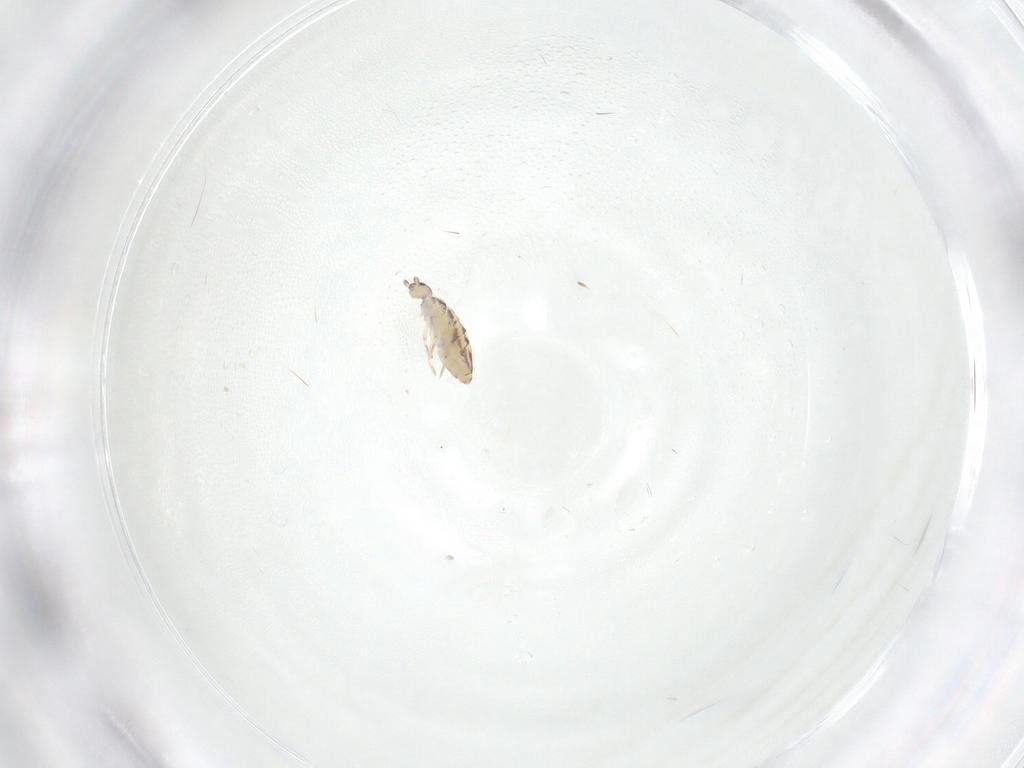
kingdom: Animalia
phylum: Arthropoda
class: Collembola
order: Entomobryomorpha
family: Entomobryidae
